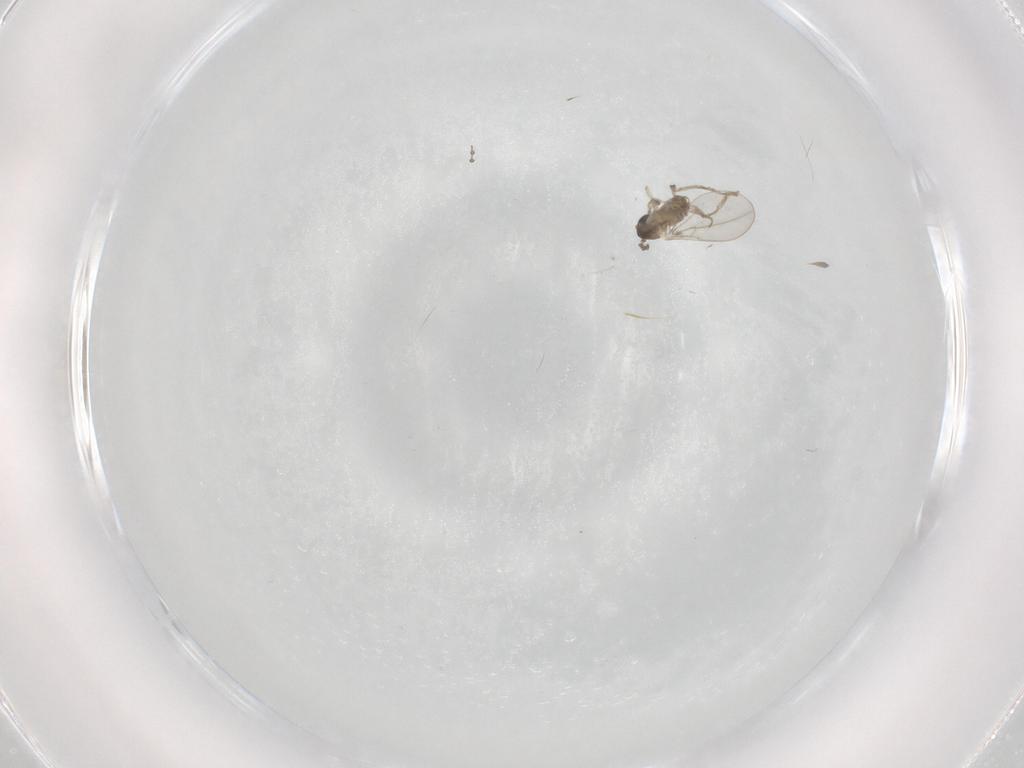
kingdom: Animalia
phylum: Arthropoda
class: Insecta
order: Diptera
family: Cecidomyiidae
